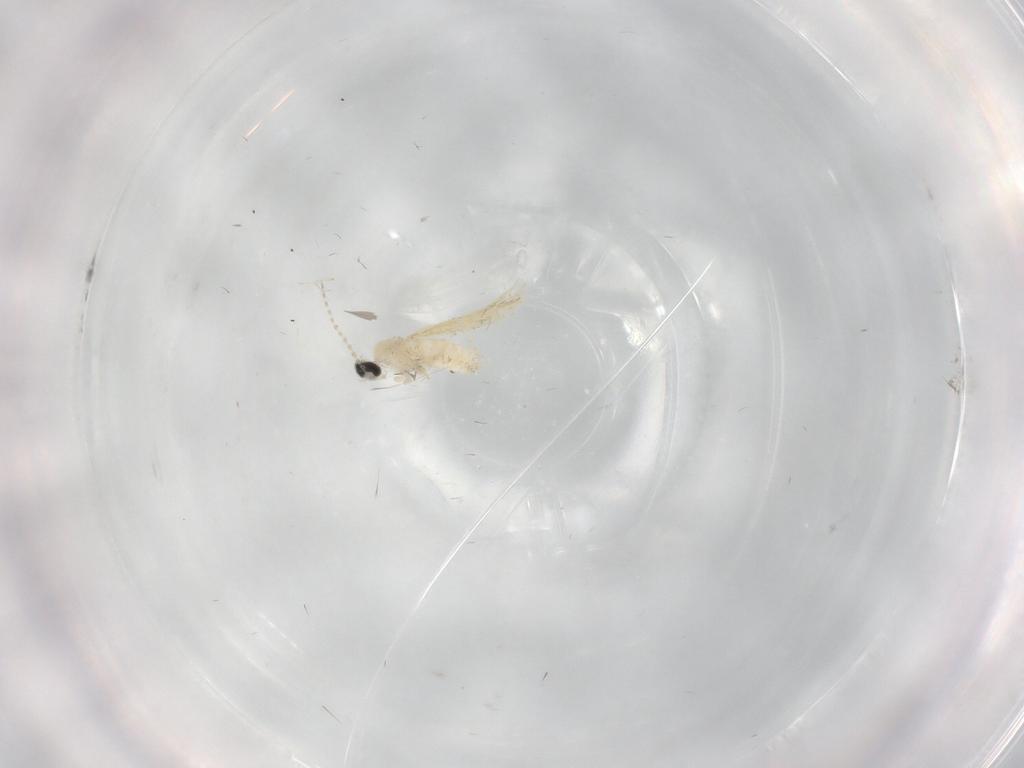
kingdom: Animalia
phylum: Arthropoda
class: Insecta
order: Diptera
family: Cecidomyiidae
